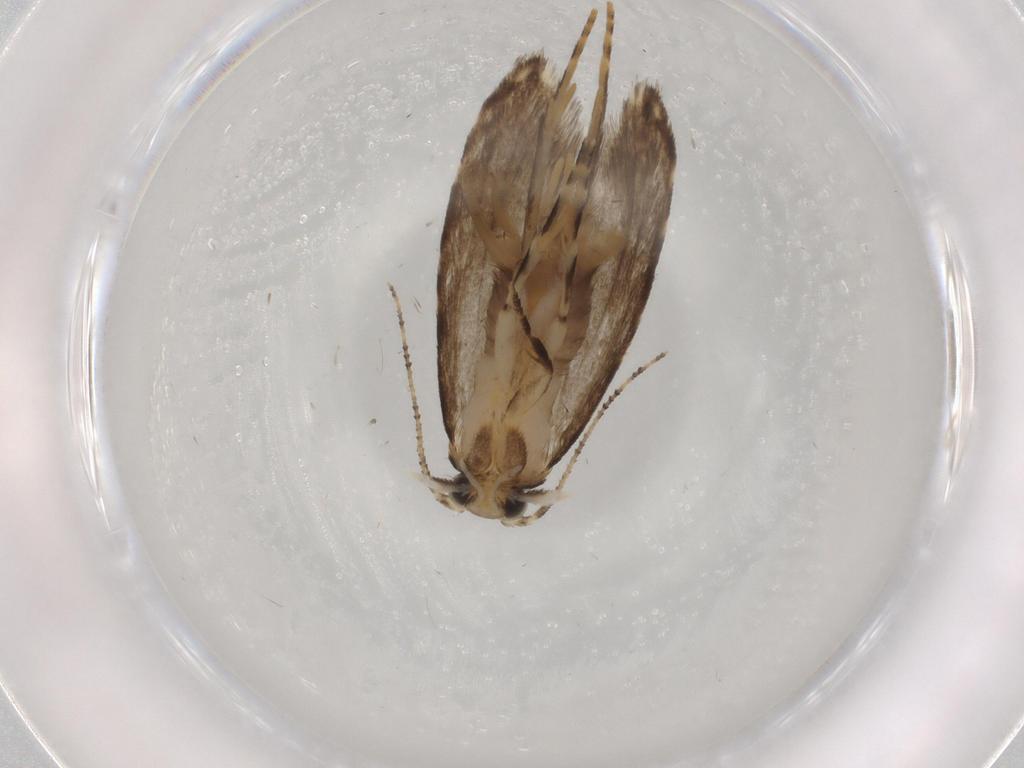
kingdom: Animalia
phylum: Arthropoda
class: Insecta
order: Lepidoptera
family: Tineidae
